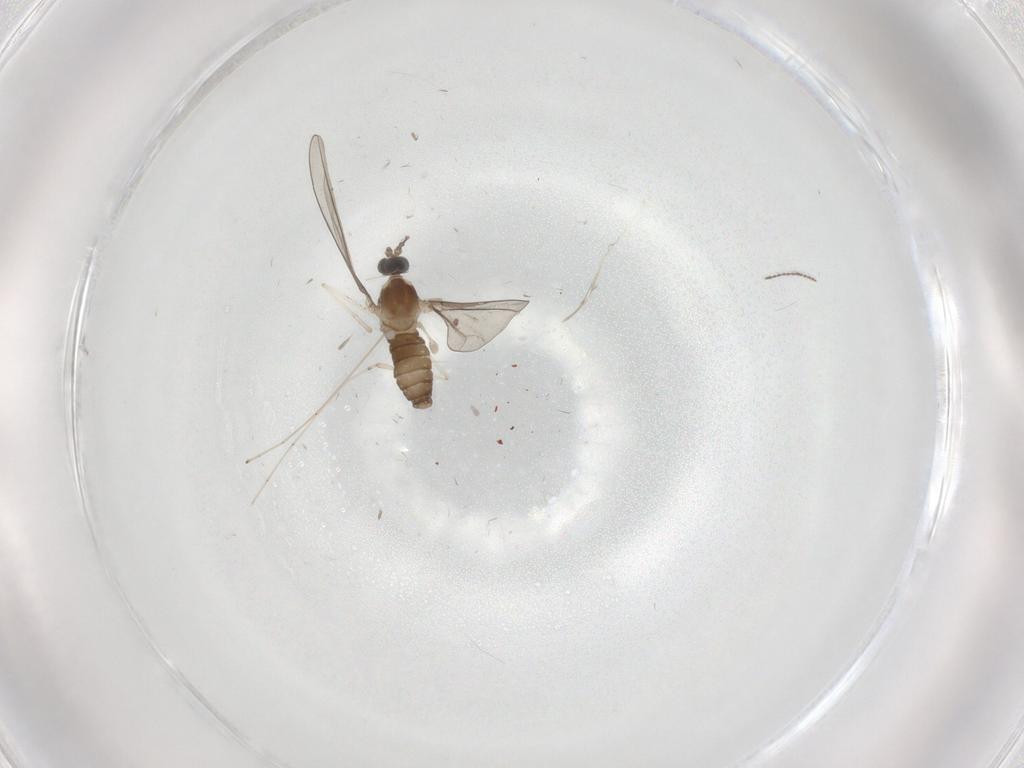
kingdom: Animalia
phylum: Arthropoda
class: Insecta
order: Diptera
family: Cecidomyiidae
